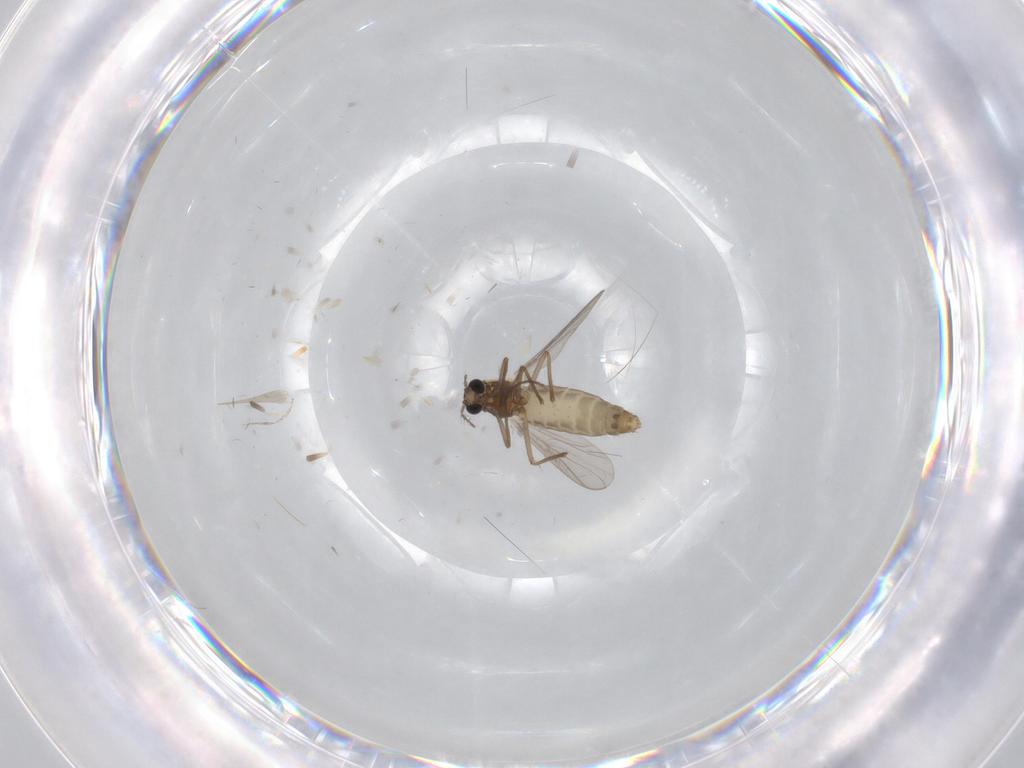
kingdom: Animalia
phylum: Arthropoda
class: Insecta
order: Diptera
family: Chironomidae
